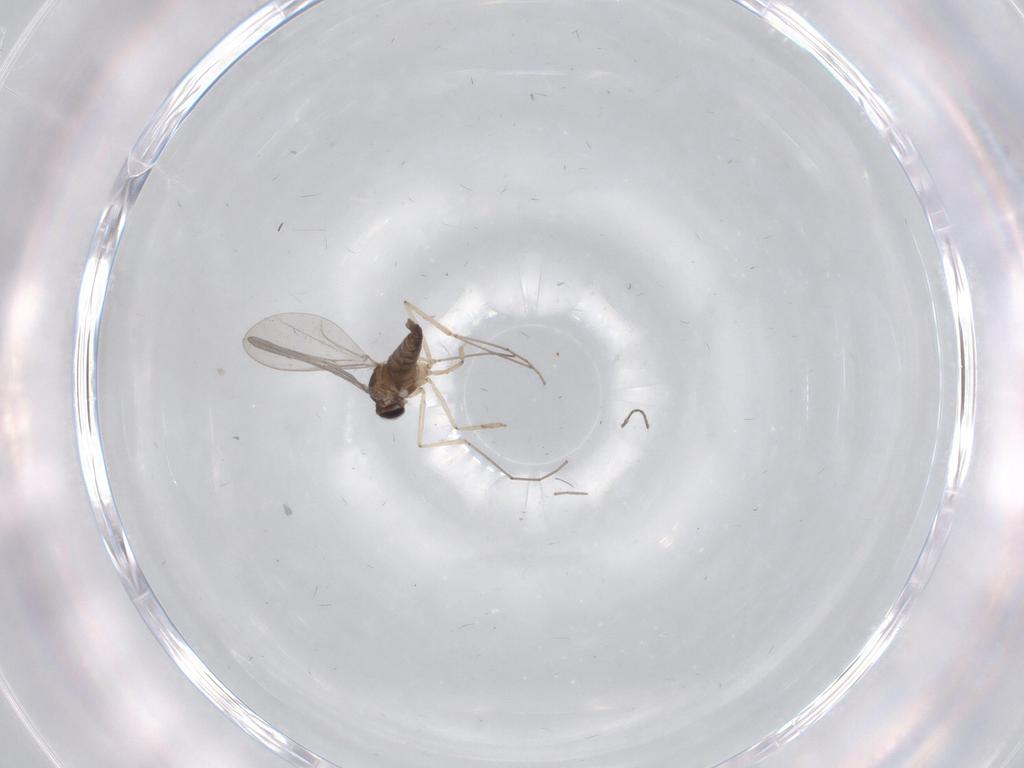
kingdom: Animalia
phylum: Arthropoda
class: Insecta
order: Diptera
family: Cecidomyiidae
